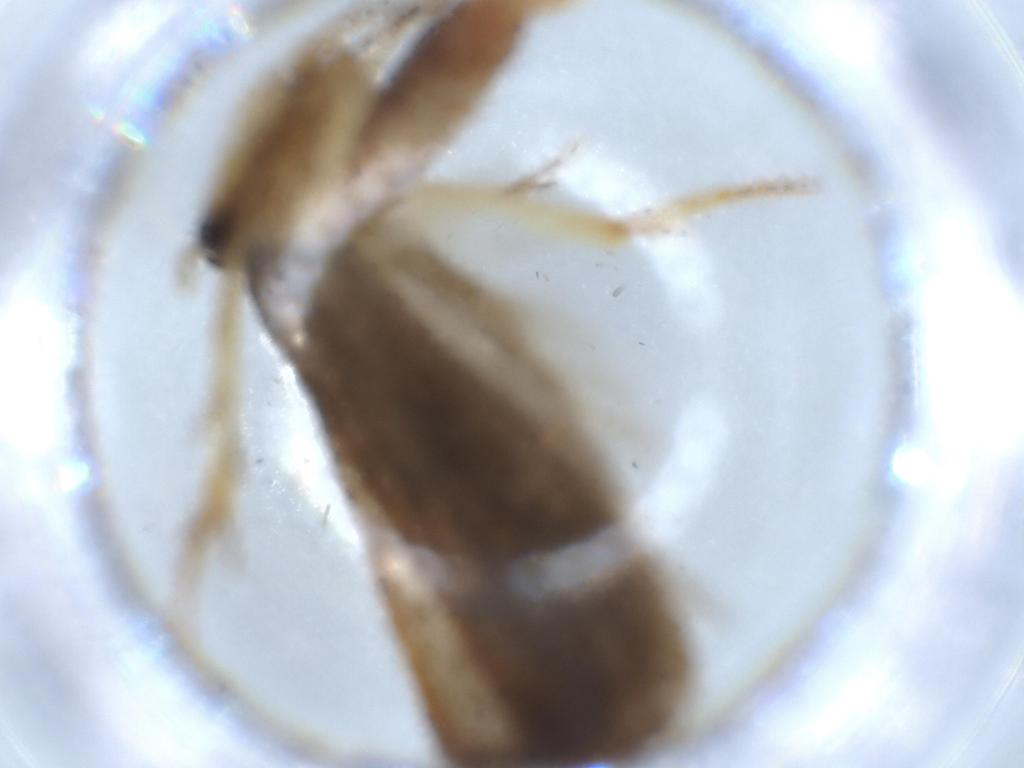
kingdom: Animalia
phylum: Arthropoda
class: Insecta
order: Lepidoptera
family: Lecithoceridae
